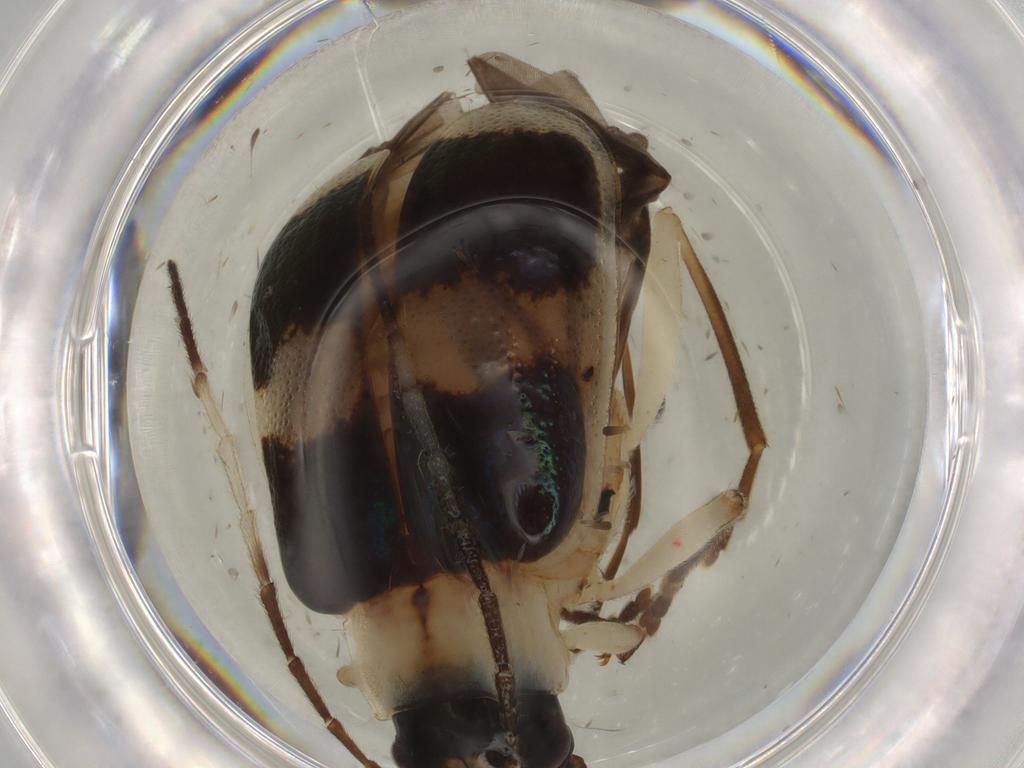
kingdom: Animalia
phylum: Arthropoda
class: Insecta
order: Coleoptera
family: Chrysomelidae
